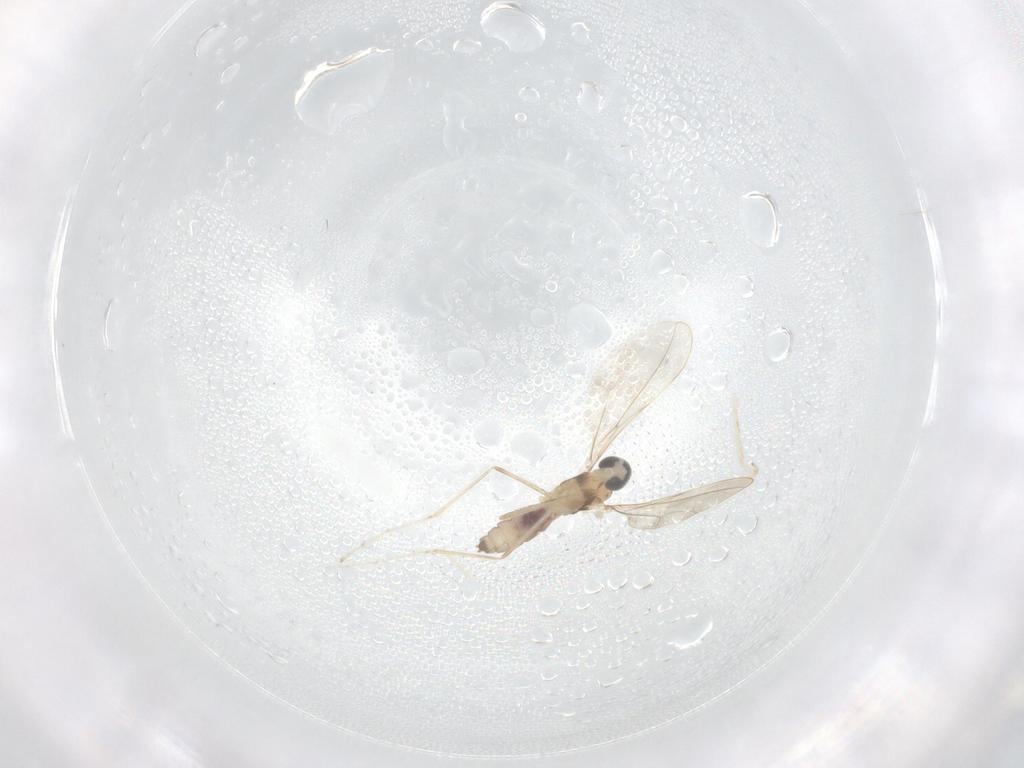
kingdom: Animalia
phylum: Arthropoda
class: Insecta
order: Diptera
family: Cecidomyiidae
